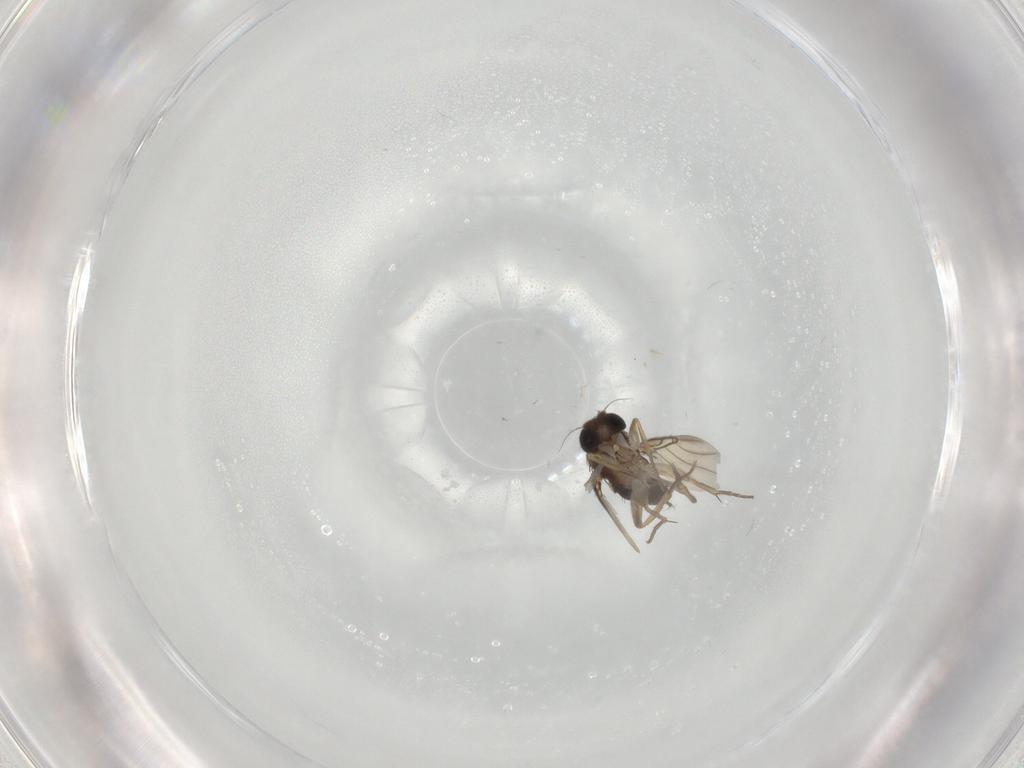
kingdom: Animalia
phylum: Arthropoda
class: Insecta
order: Diptera
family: Phoridae
